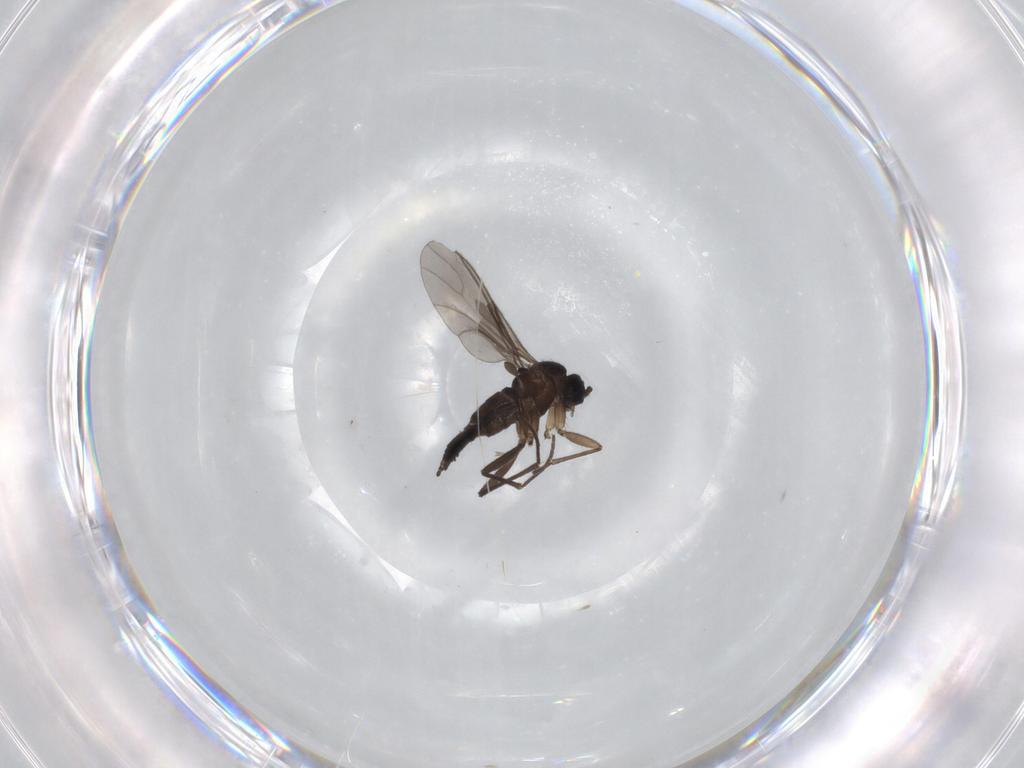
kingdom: Animalia
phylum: Arthropoda
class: Insecta
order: Diptera
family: Sciaridae
